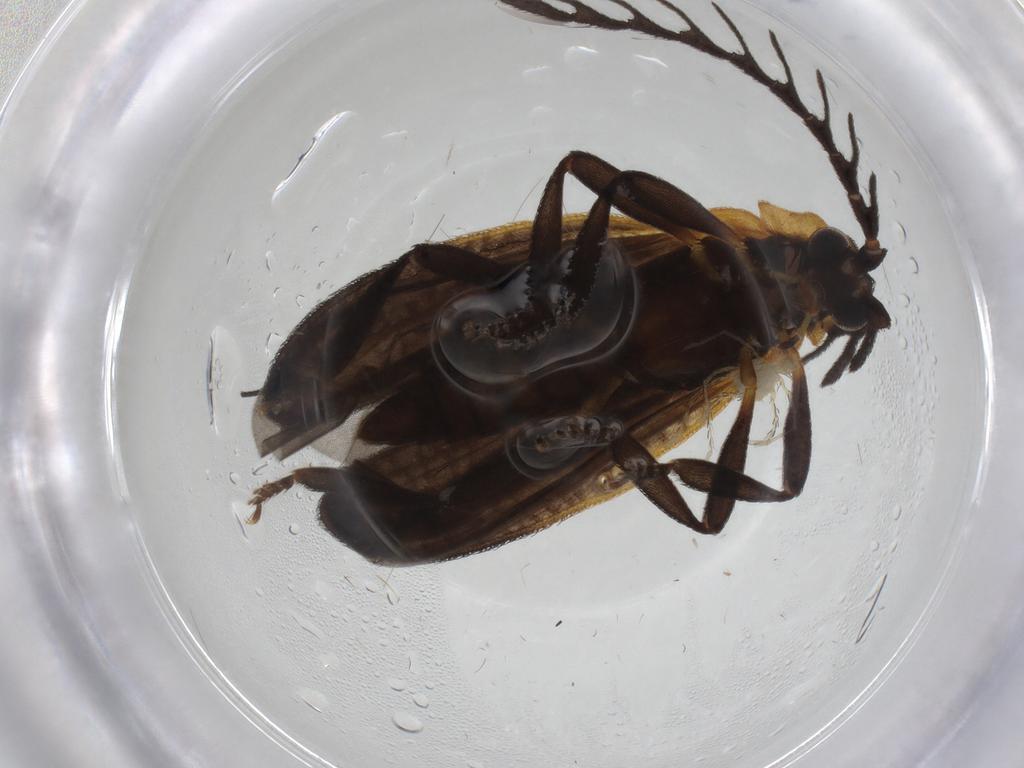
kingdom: Animalia
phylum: Arthropoda
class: Insecta
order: Coleoptera
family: Lycidae
